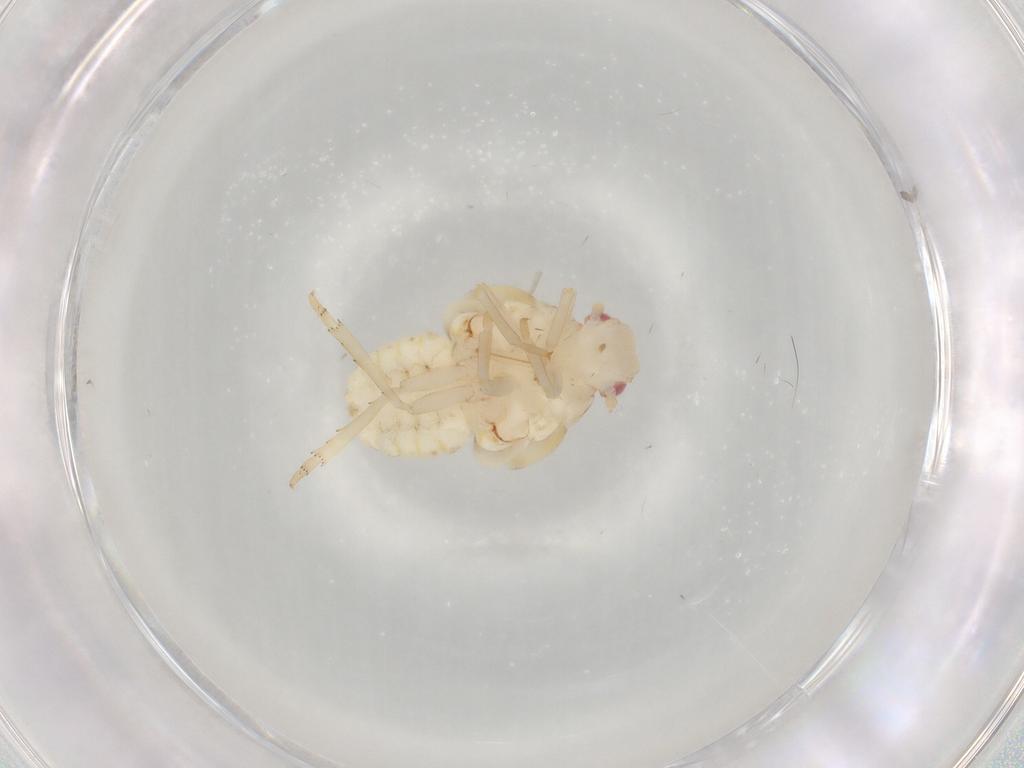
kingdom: Animalia
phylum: Arthropoda
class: Insecta
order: Hemiptera
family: Flatidae
